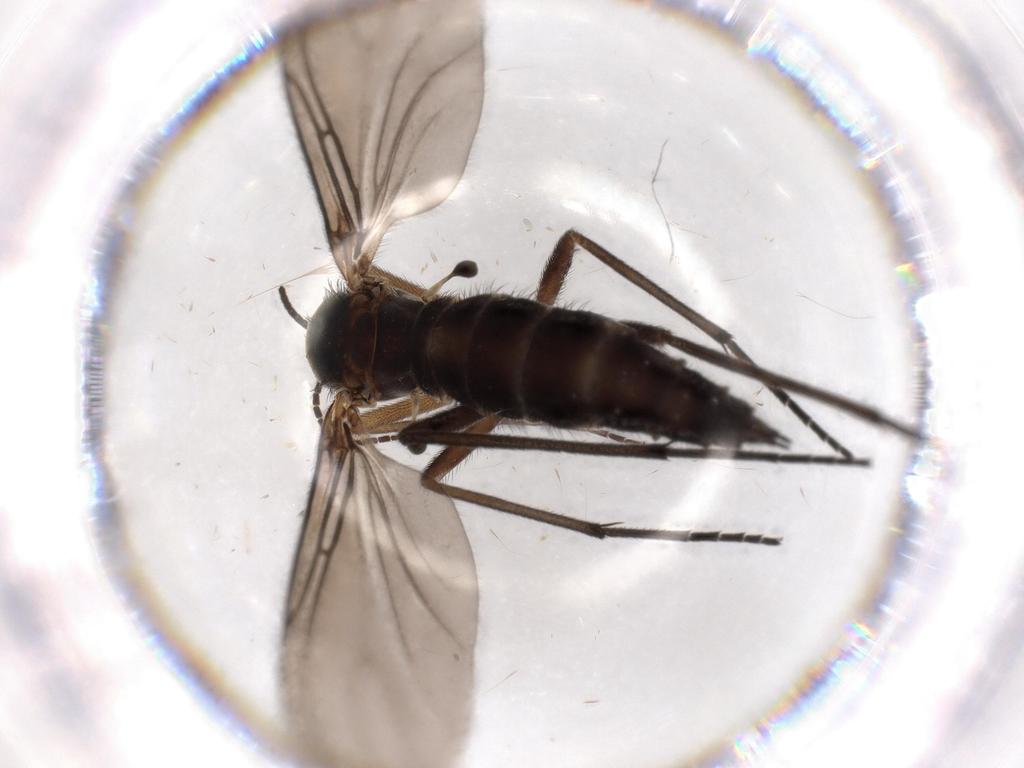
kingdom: Animalia
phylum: Arthropoda
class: Insecta
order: Diptera
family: Sciaridae
